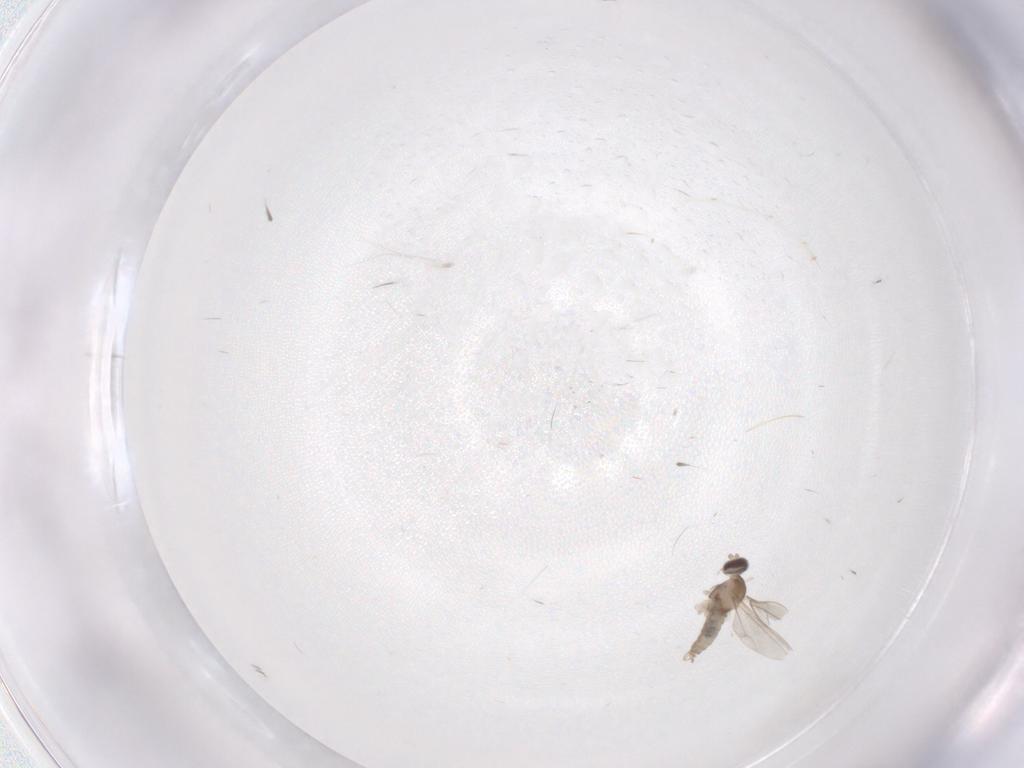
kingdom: Animalia
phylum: Arthropoda
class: Insecta
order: Diptera
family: Cecidomyiidae
